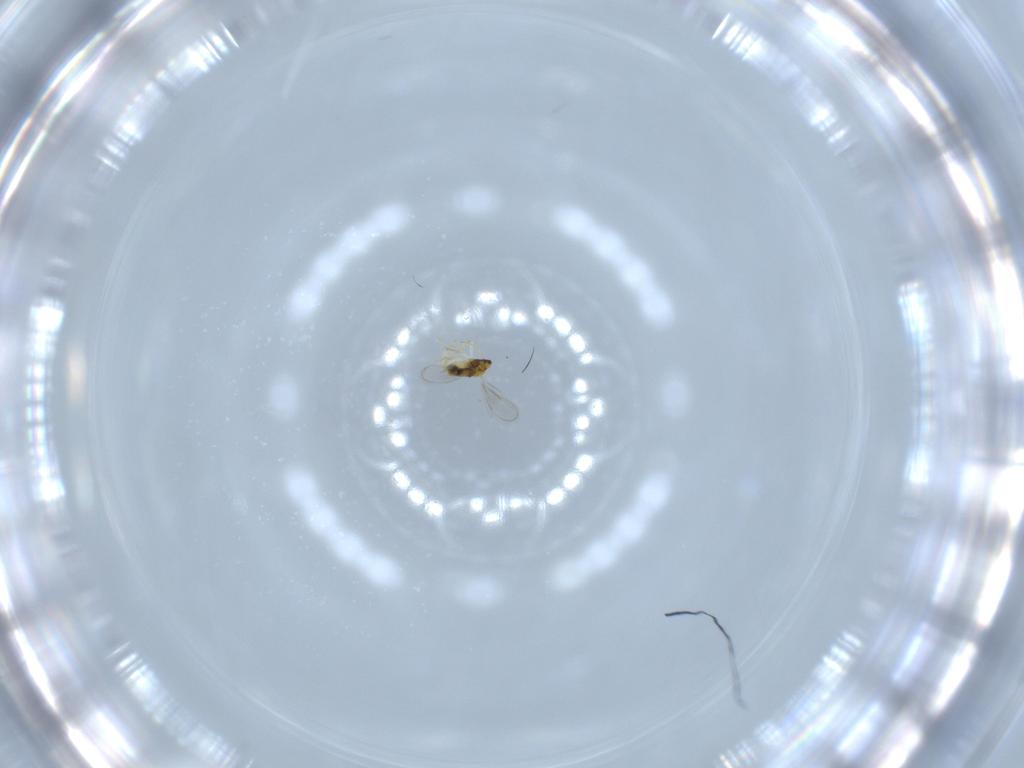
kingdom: Animalia
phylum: Arthropoda
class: Insecta
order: Hymenoptera
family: Aphelinidae
